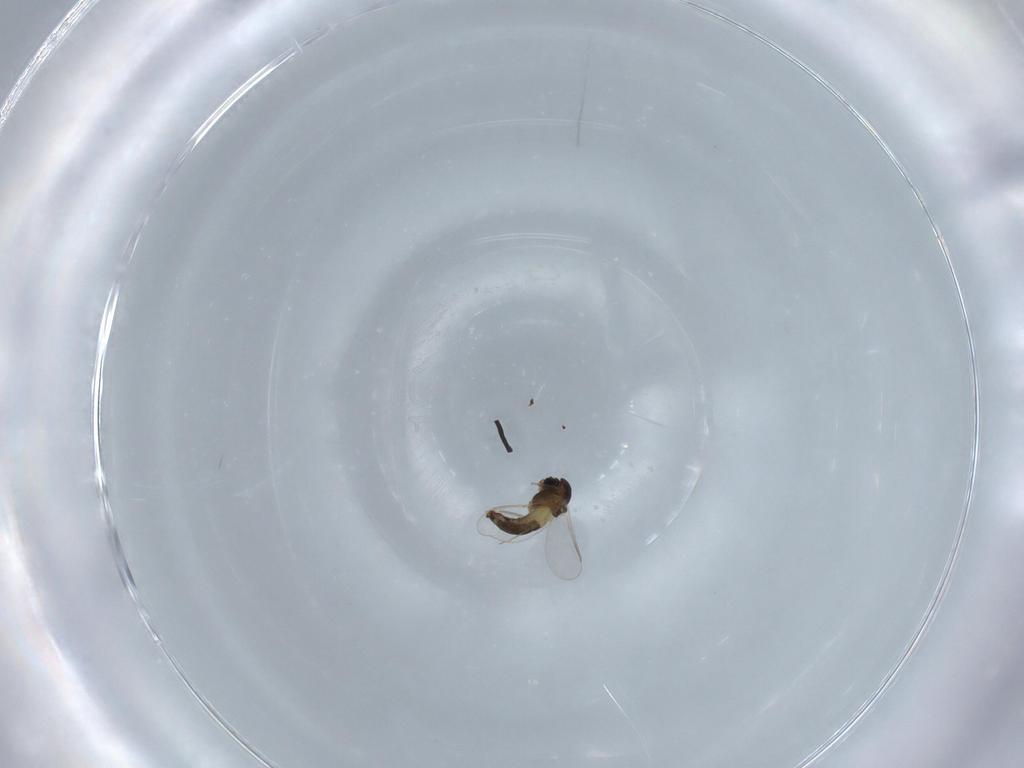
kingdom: Animalia
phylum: Arthropoda
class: Insecta
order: Diptera
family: Chironomidae
